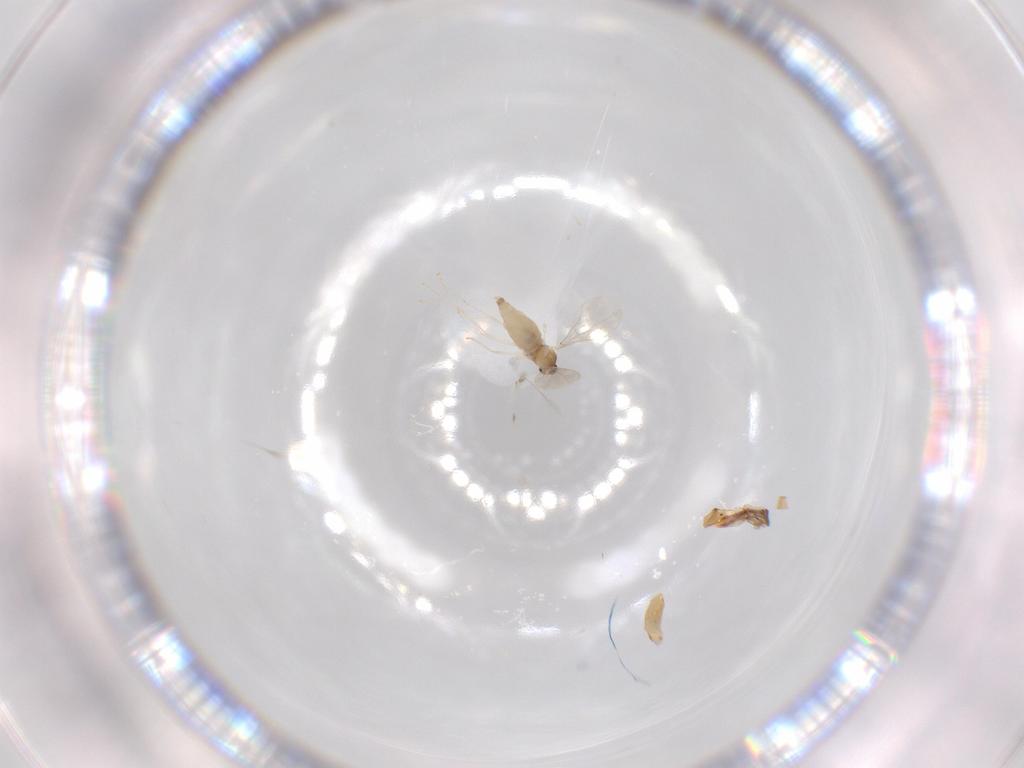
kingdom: Animalia
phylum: Arthropoda
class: Insecta
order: Diptera
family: Cecidomyiidae
